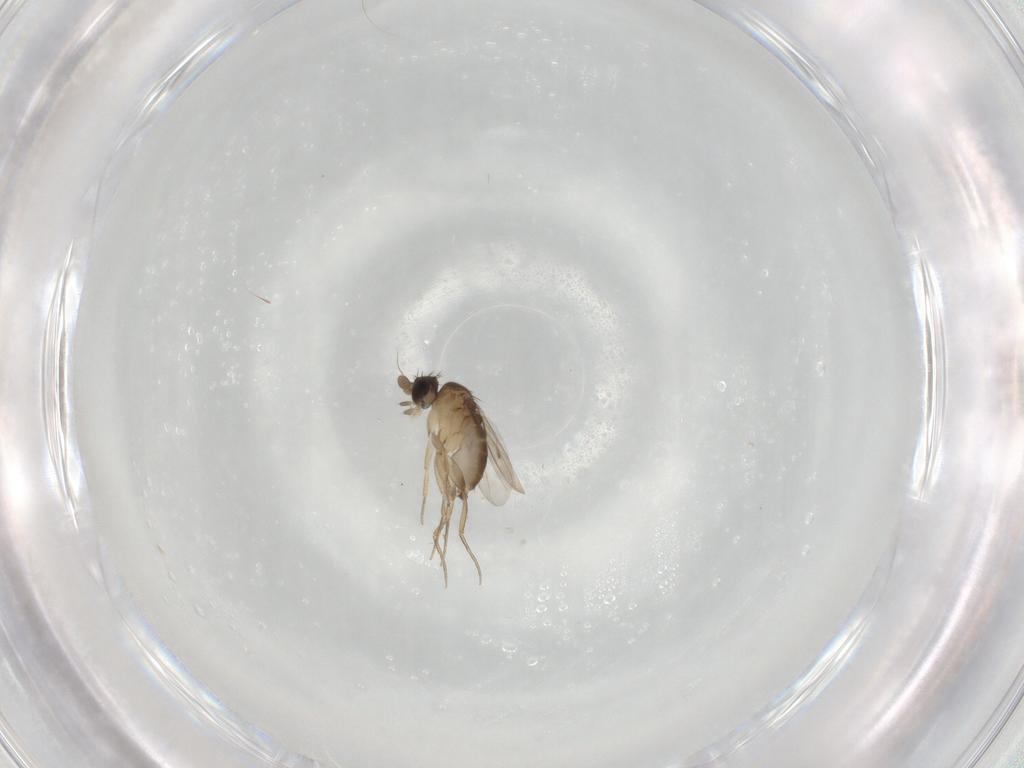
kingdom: Animalia
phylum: Arthropoda
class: Insecta
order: Diptera
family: Phoridae
